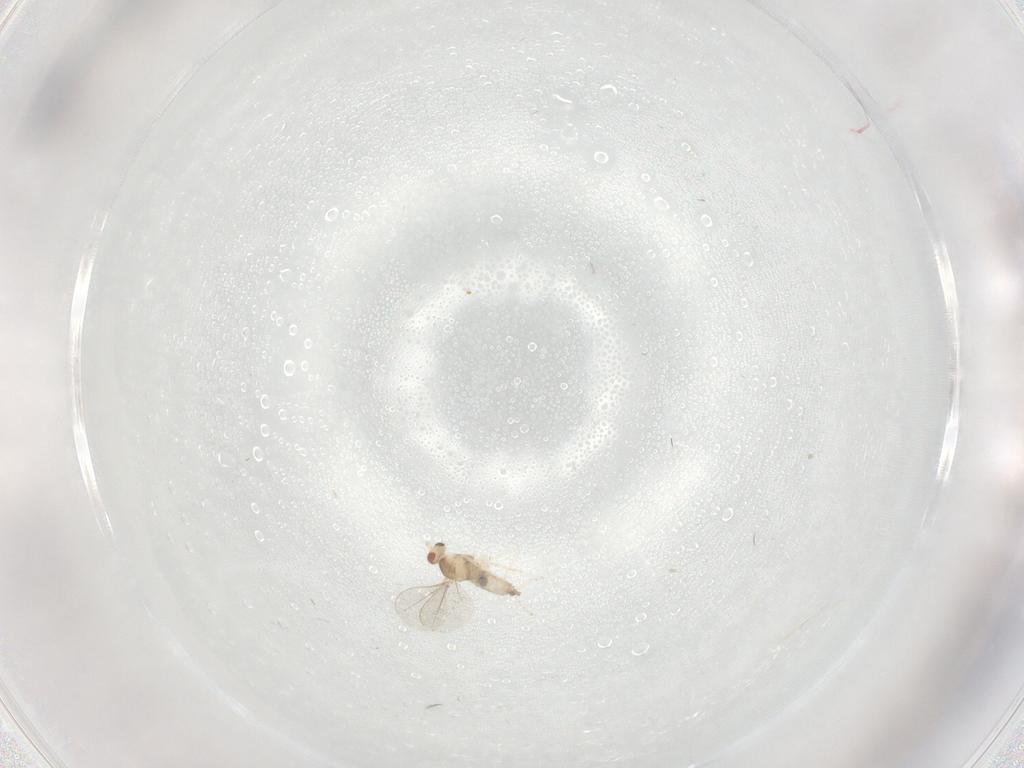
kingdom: Animalia
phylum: Arthropoda
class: Insecta
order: Diptera
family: Cecidomyiidae
